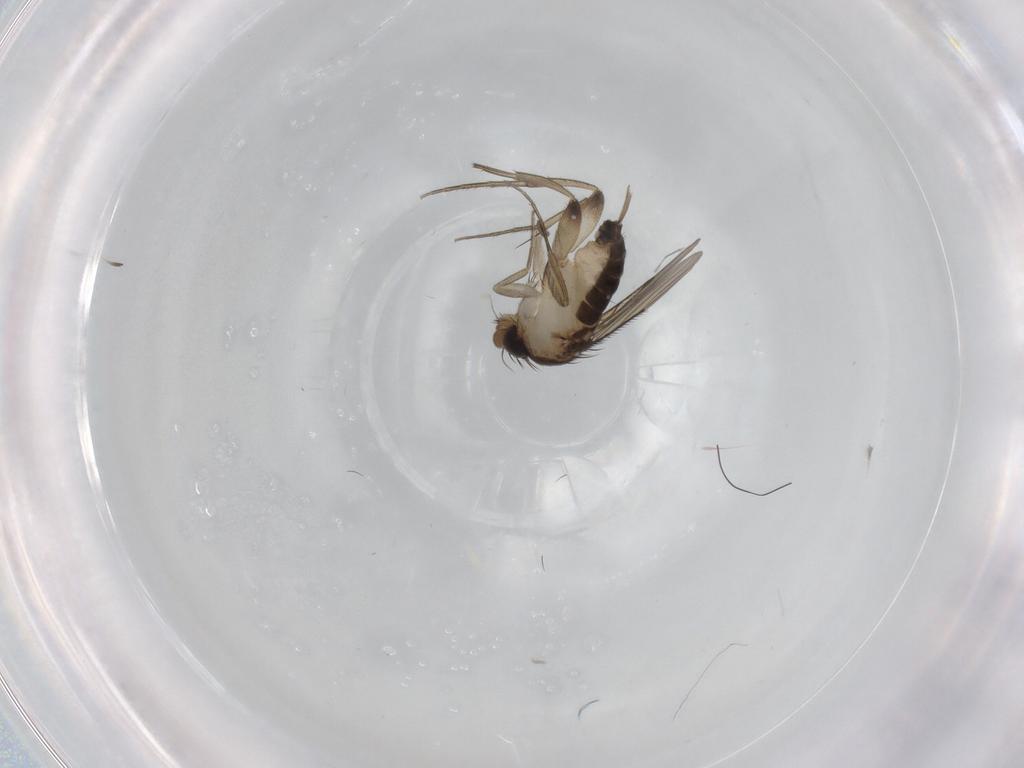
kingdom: Animalia
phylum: Arthropoda
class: Insecta
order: Diptera
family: Phoridae
